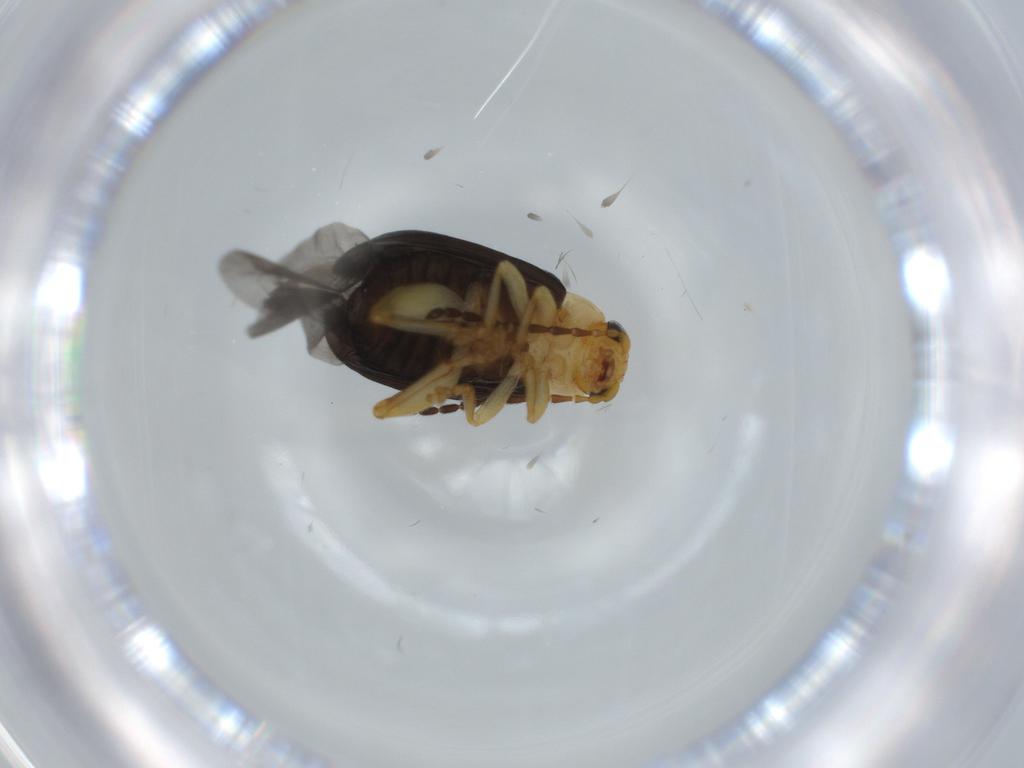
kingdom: Animalia
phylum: Arthropoda
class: Insecta
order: Coleoptera
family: Chrysomelidae
